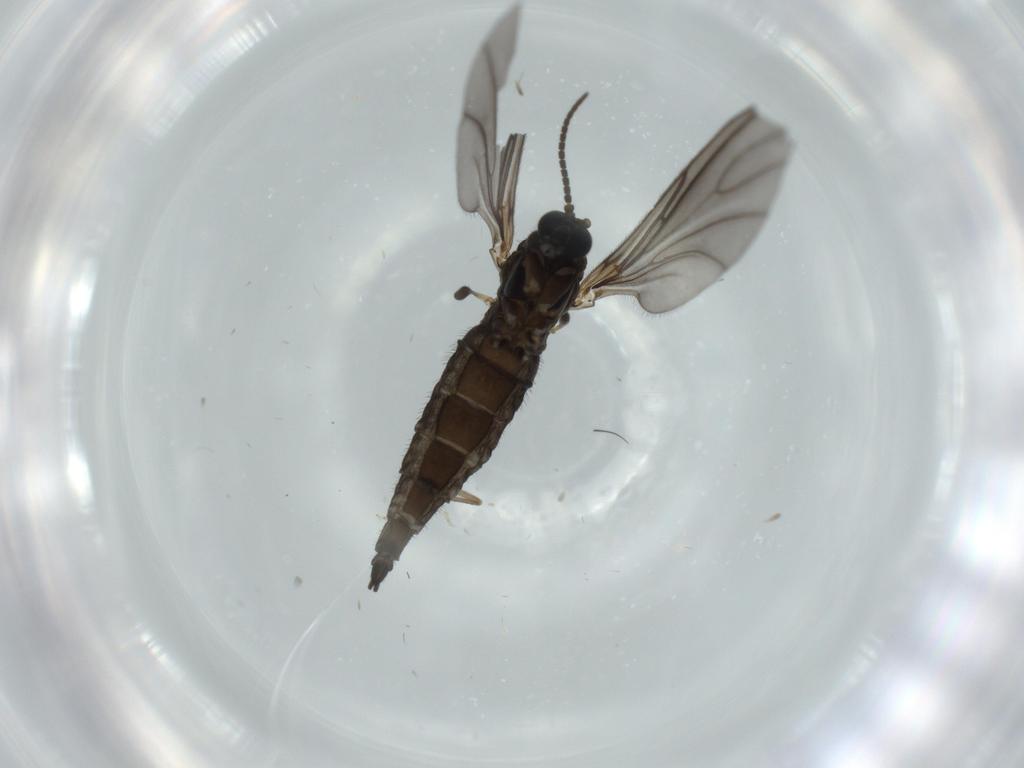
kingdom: Animalia
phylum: Arthropoda
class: Insecta
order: Diptera
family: Sciaridae
